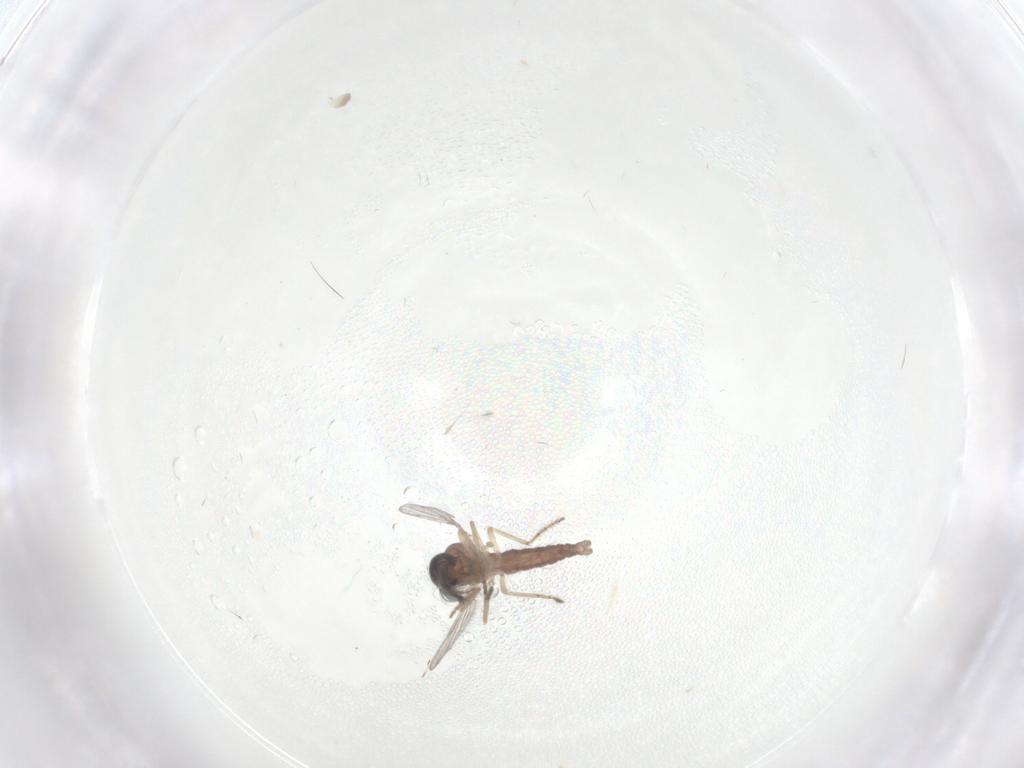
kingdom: Animalia
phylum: Arthropoda
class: Insecta
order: Diptera
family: Ceratopogonidae
